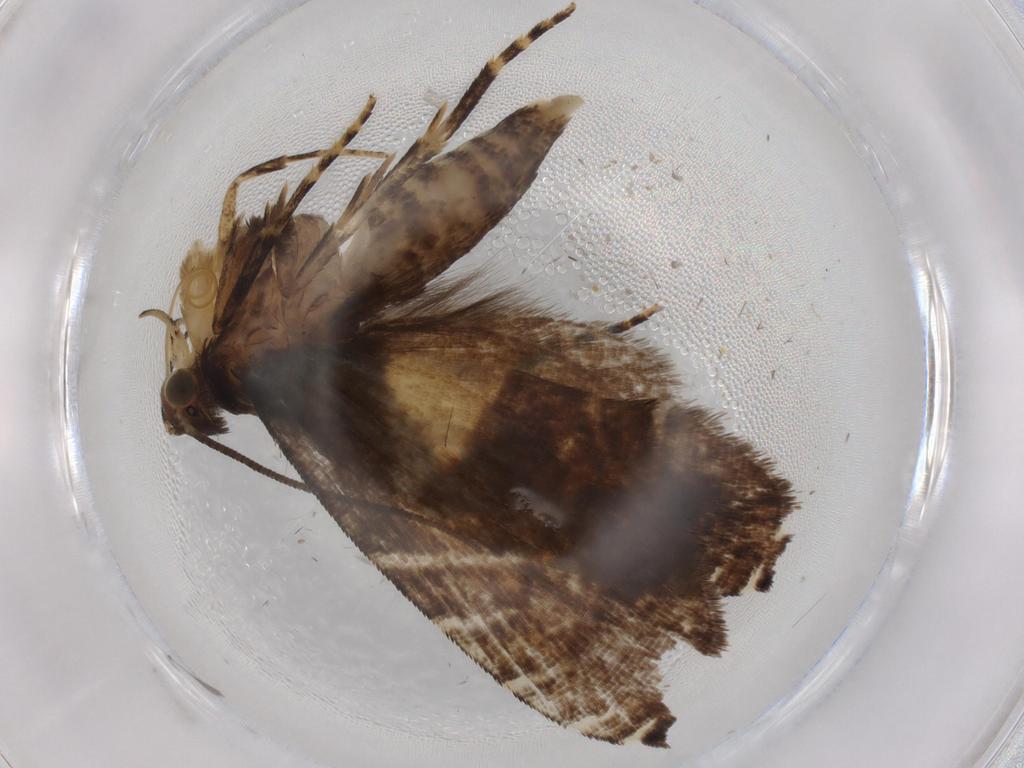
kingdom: Animalia
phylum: Arthropoda
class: Insecta
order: Lepidoptera
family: Glyphipterigidae
